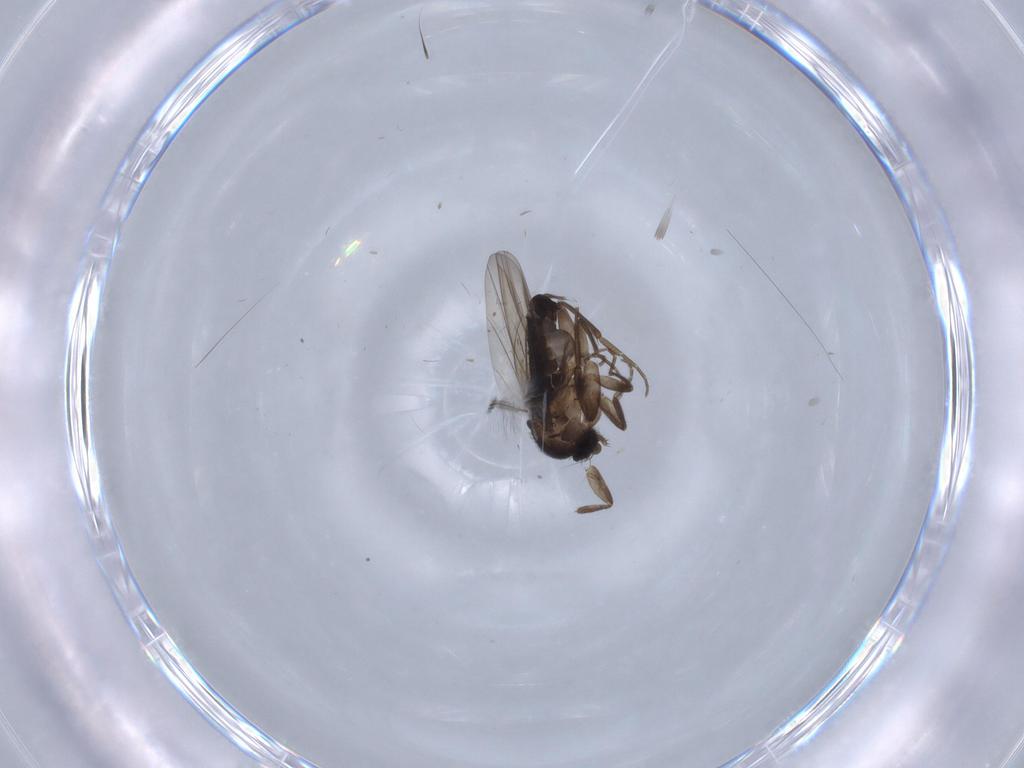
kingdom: Animalia
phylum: Arthropoda
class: Insecta
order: Diptera
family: Phoridae
